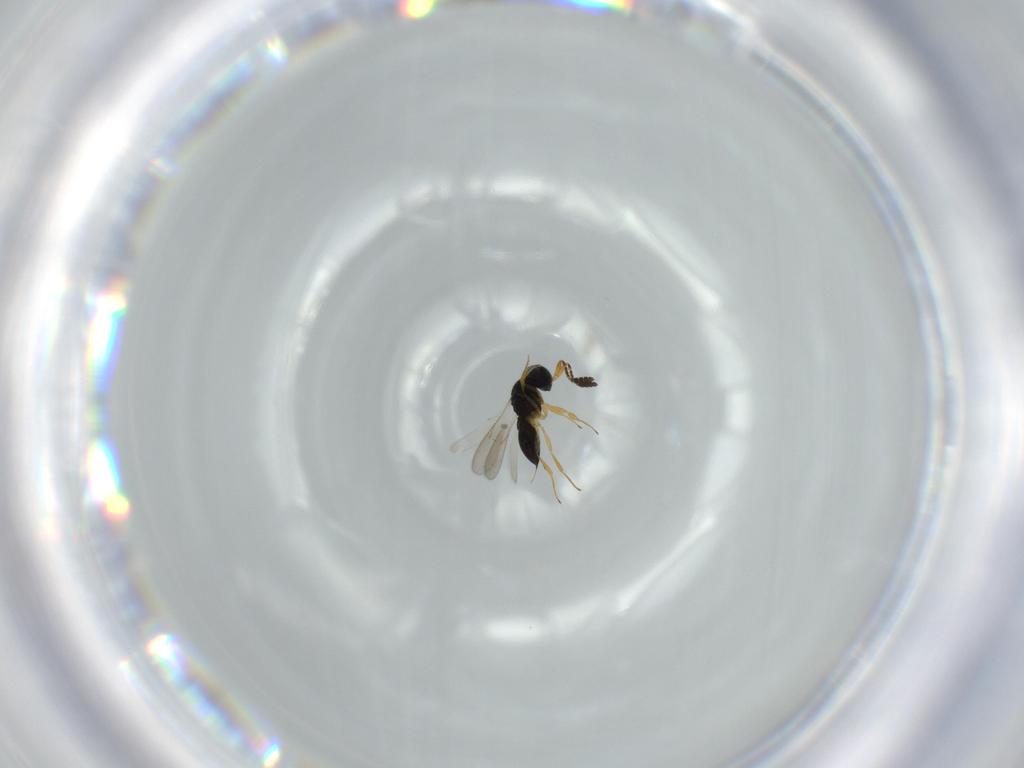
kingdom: Animalia
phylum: Arthropoda
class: Insecta
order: Hymenoptera
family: Scelionidae
